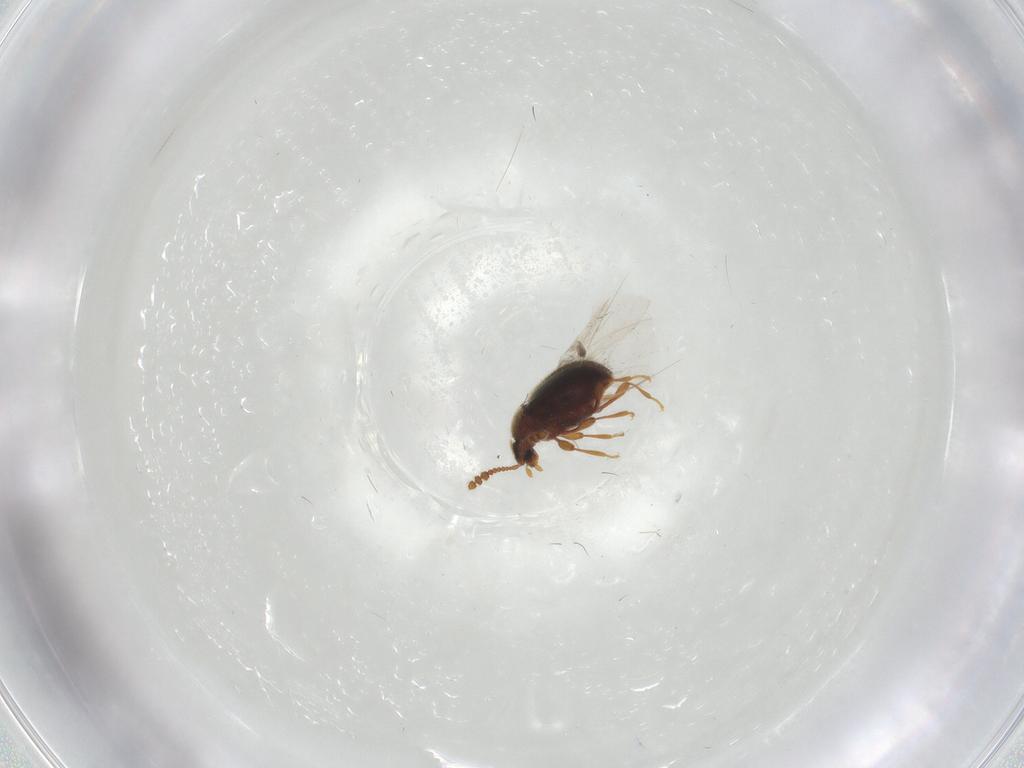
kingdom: Animalia
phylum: Arthropoda
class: Insecta
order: Coleoptera
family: Staphylinidae
